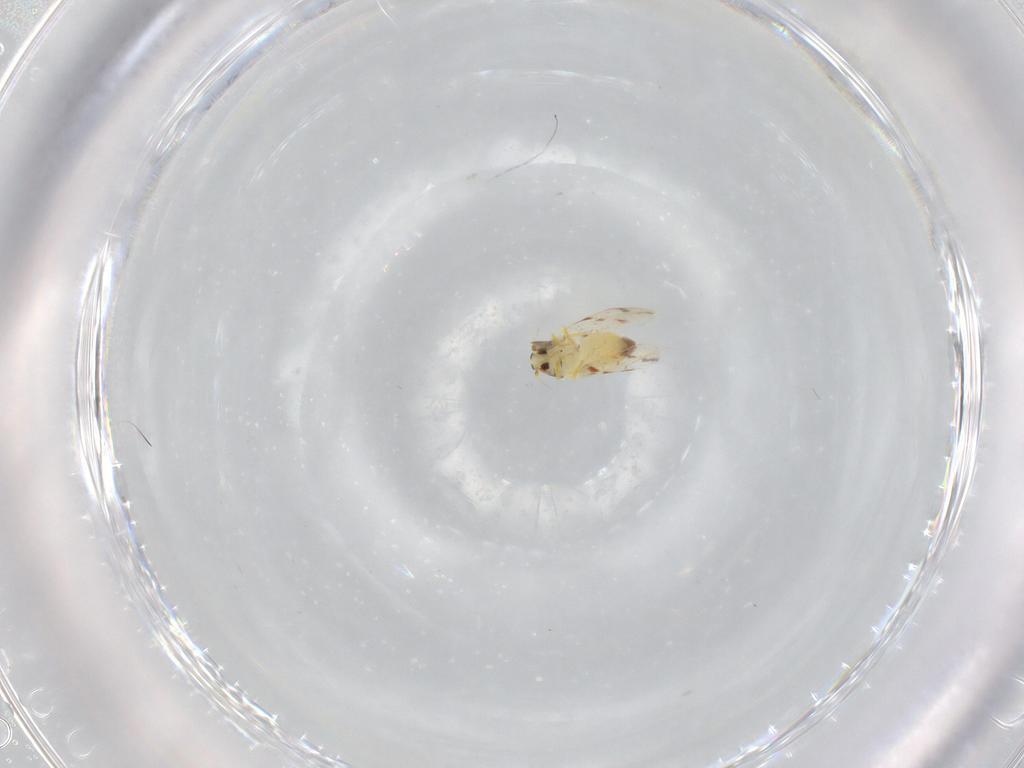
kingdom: Animalia
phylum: Arthropoda
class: Insecta
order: Hemiptera
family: Aleyrodidae
